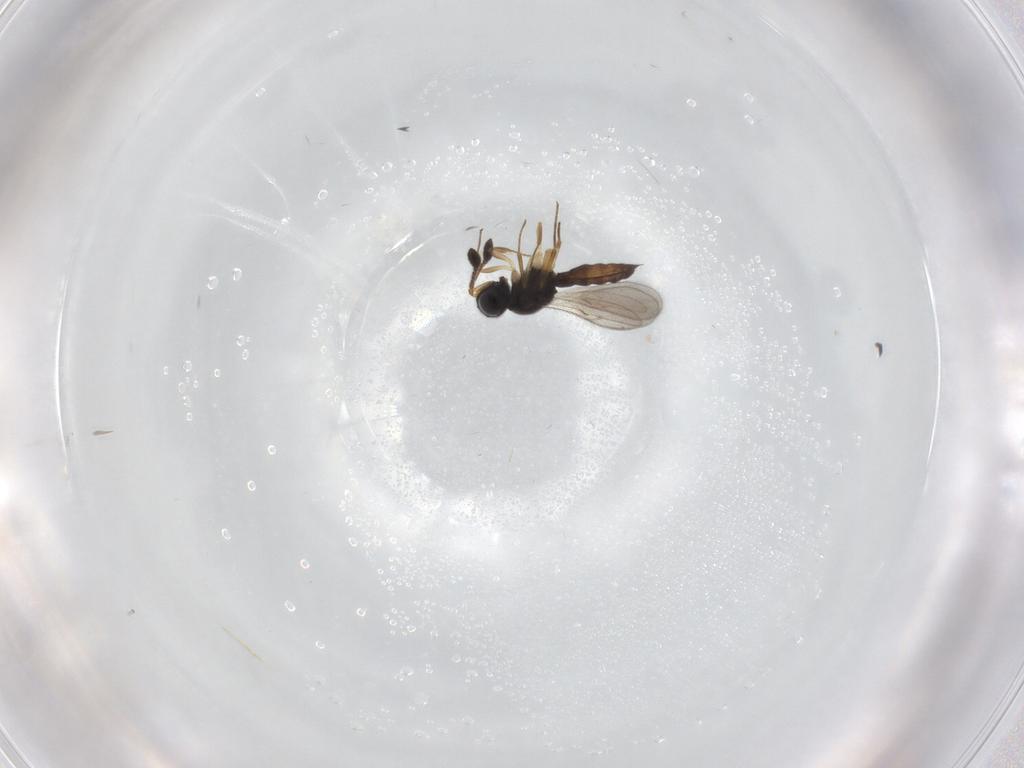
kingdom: Animalia
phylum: Arthropoda
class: Insecta
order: Hymenoptera
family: Scelionidae
